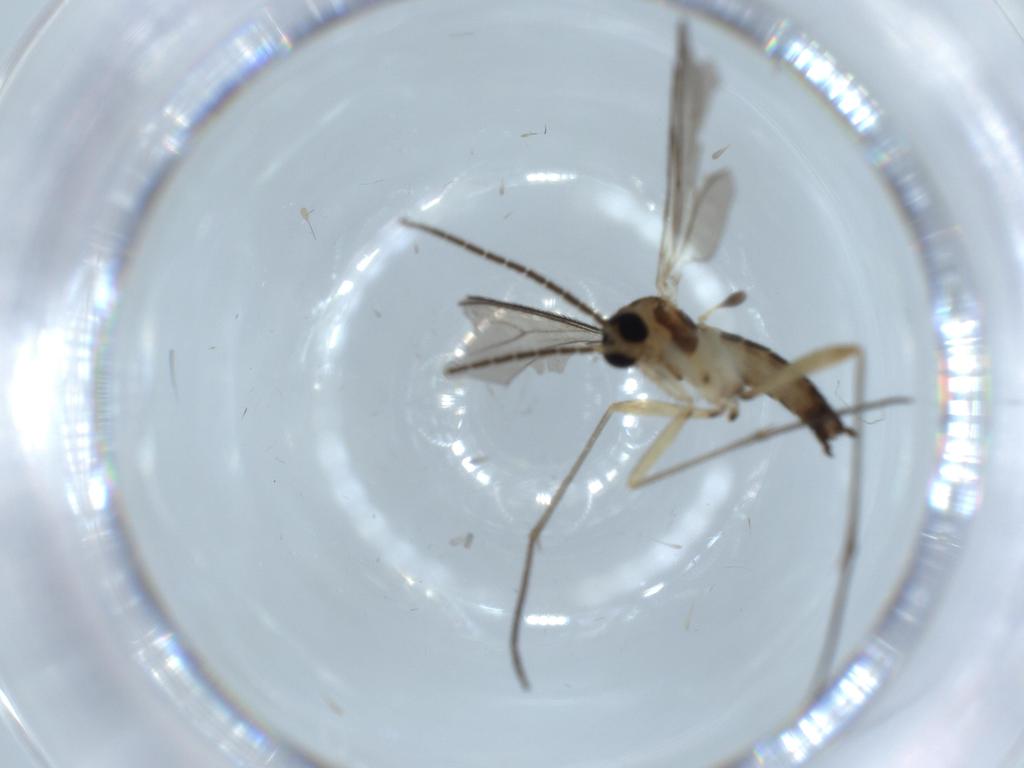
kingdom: Animalia
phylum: Arthropoda
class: Insecta
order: Diptera
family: Sciaridae
